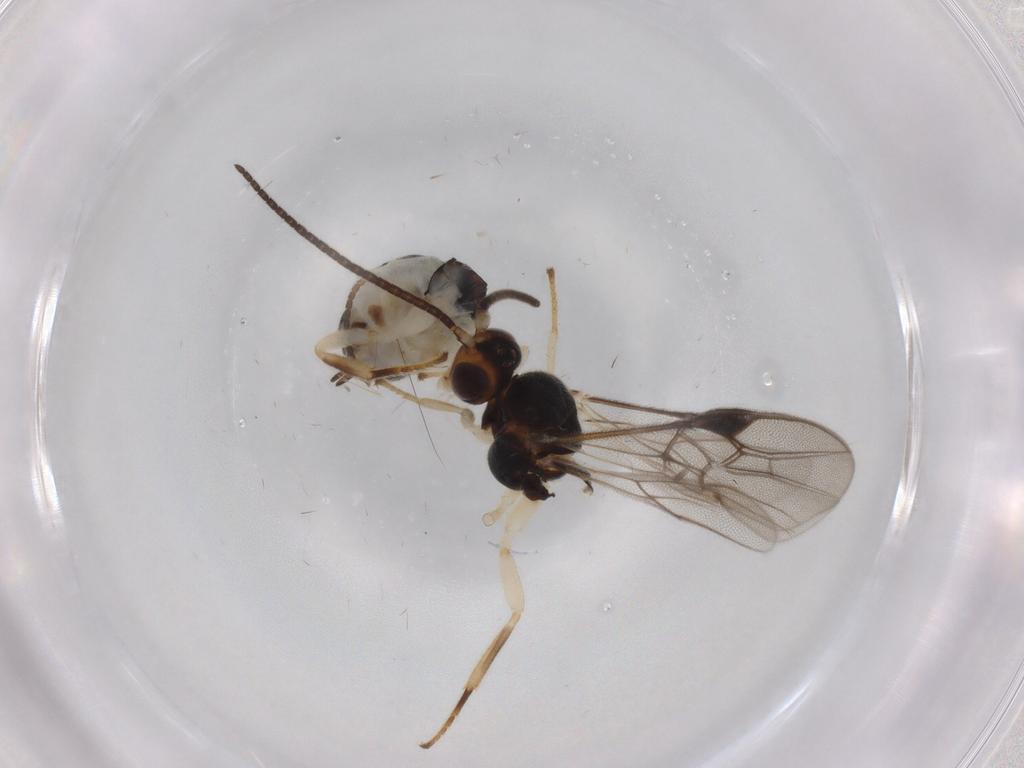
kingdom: Animalia
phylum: Arthropoda
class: Insecta
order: Hymenoptera
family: Braconidae
